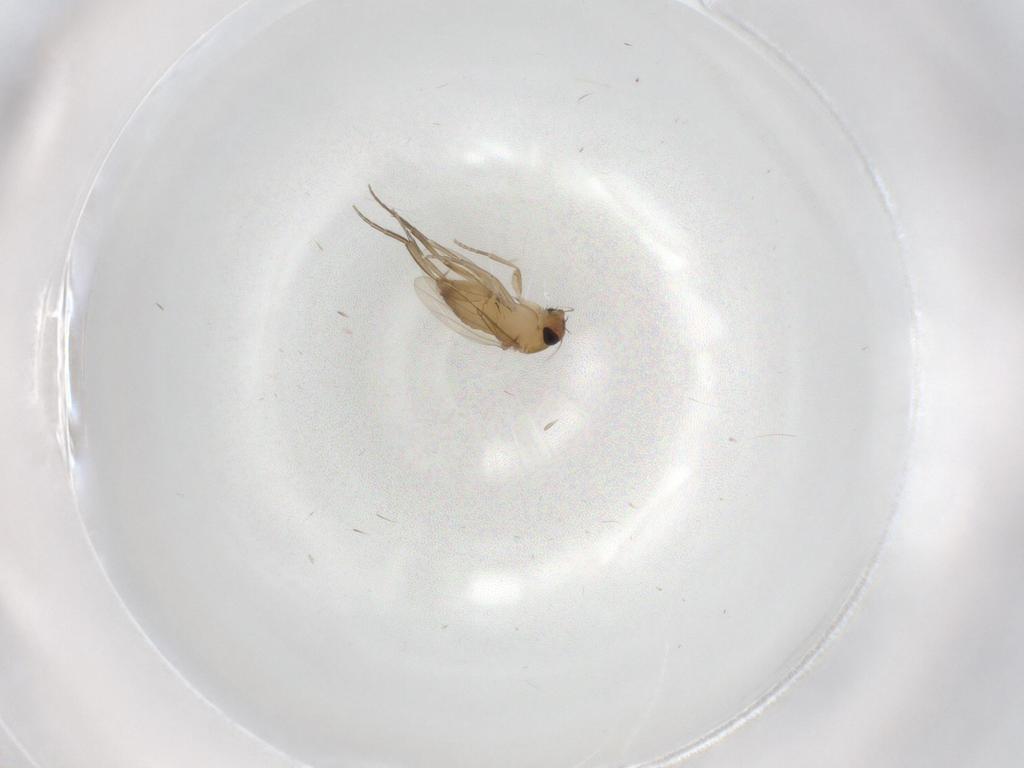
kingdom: Animalia
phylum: Arthropoda
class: Insecta
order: Diptera
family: Phoridae
